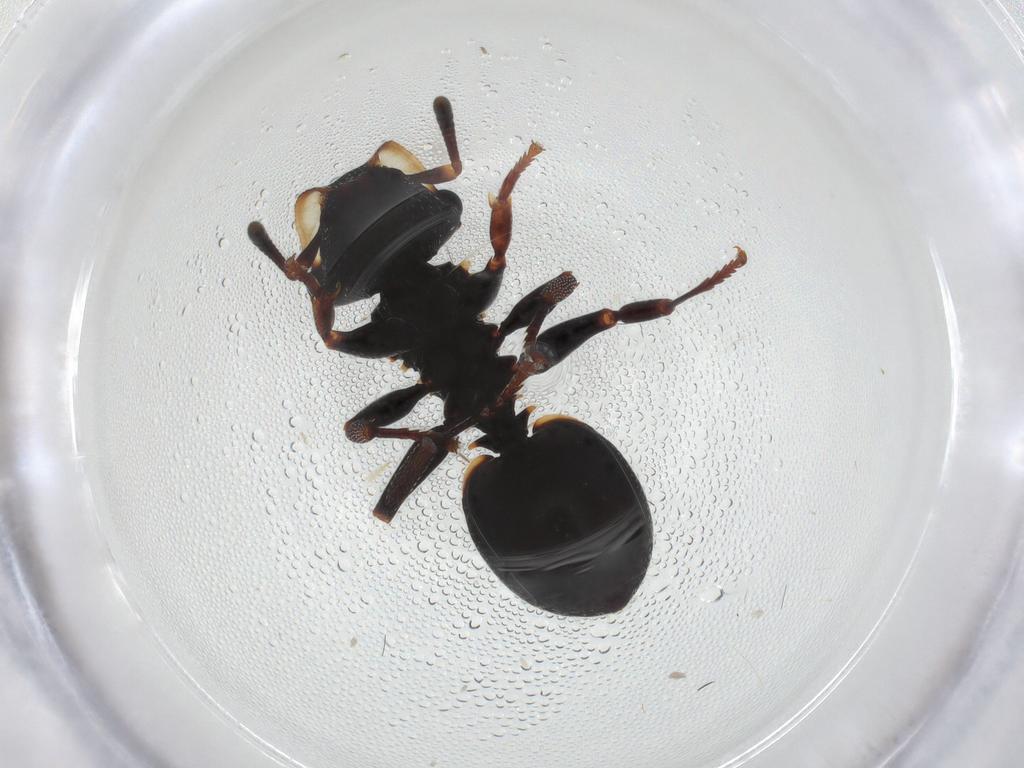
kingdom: Animalia
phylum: Arthropoda
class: Insecta
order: Hymenoptera
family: Formicidae
